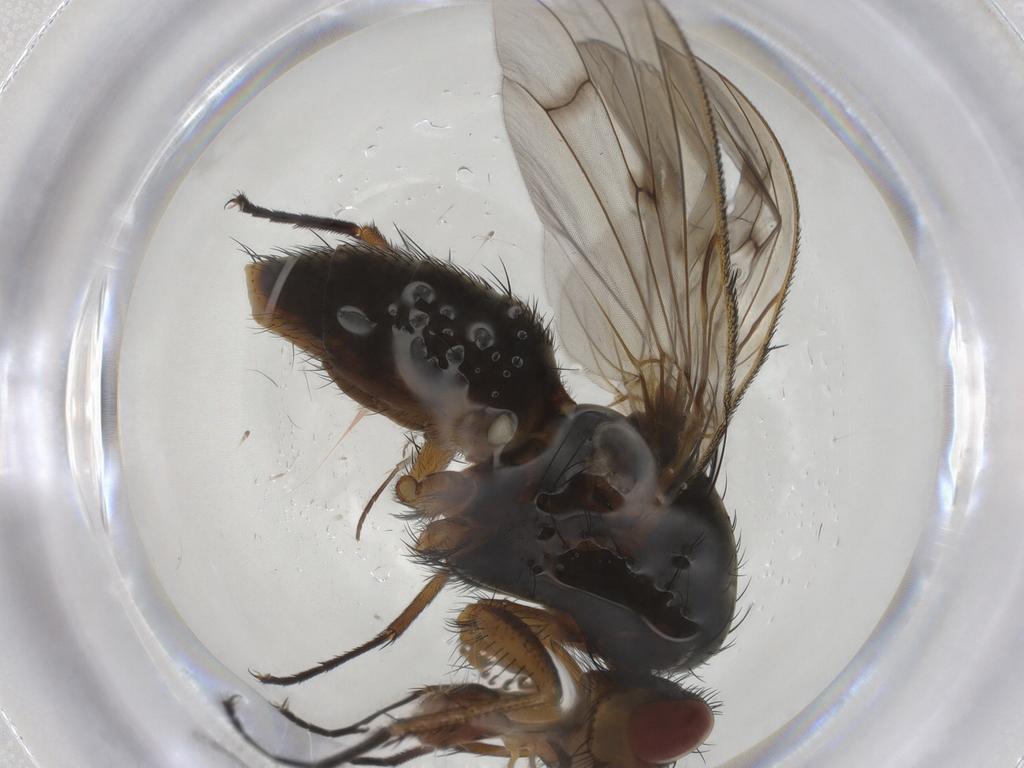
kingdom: Animalia
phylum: Arthropoda
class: Insecta
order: Diptera
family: Anthomyiidae
